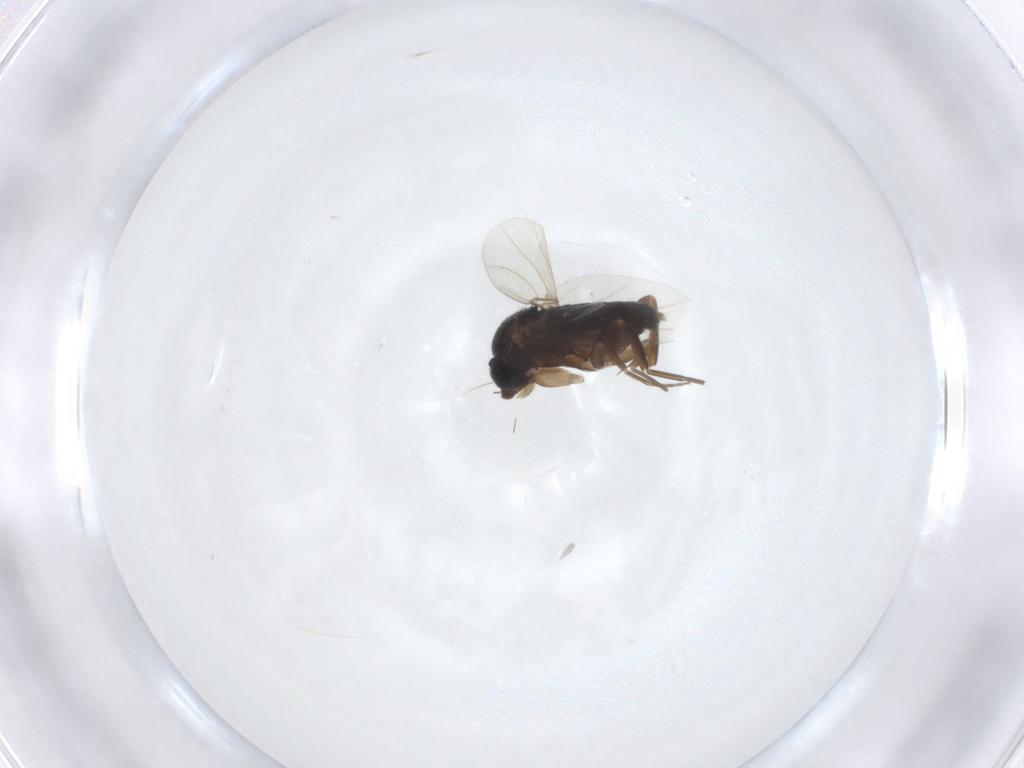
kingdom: Animalia
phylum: Arthropoda
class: Insecta
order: Diptera
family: Phoridae
